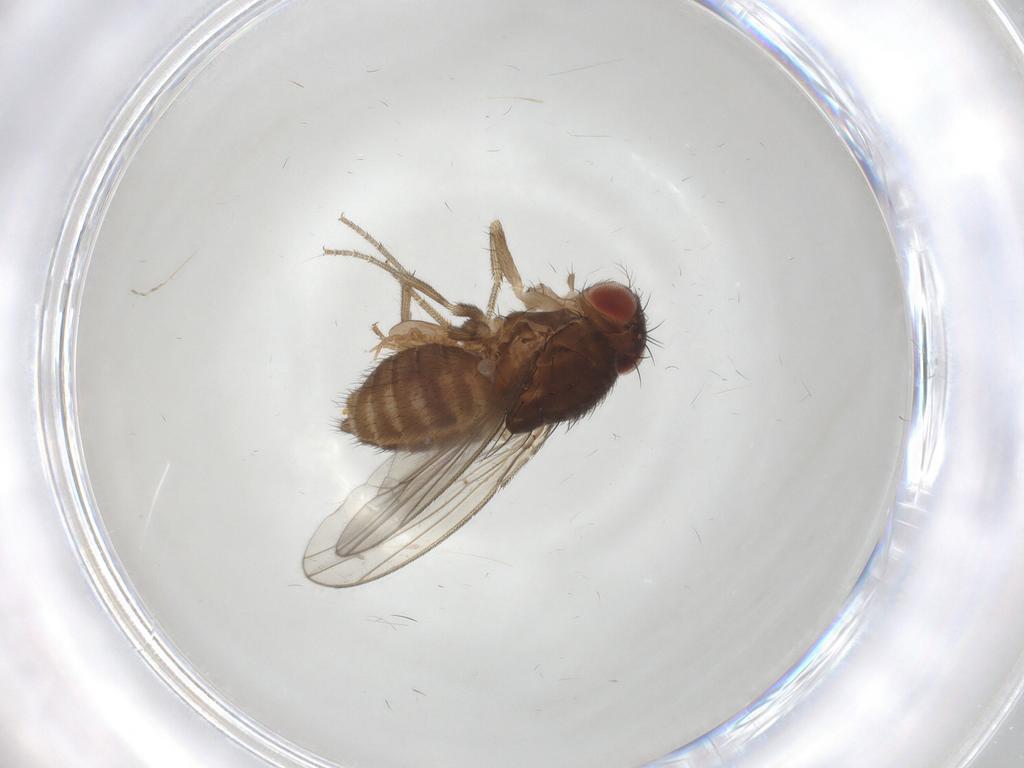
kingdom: Animalia
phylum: Arthropoda
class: Insecta
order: Diptera
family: Drosophilidae
